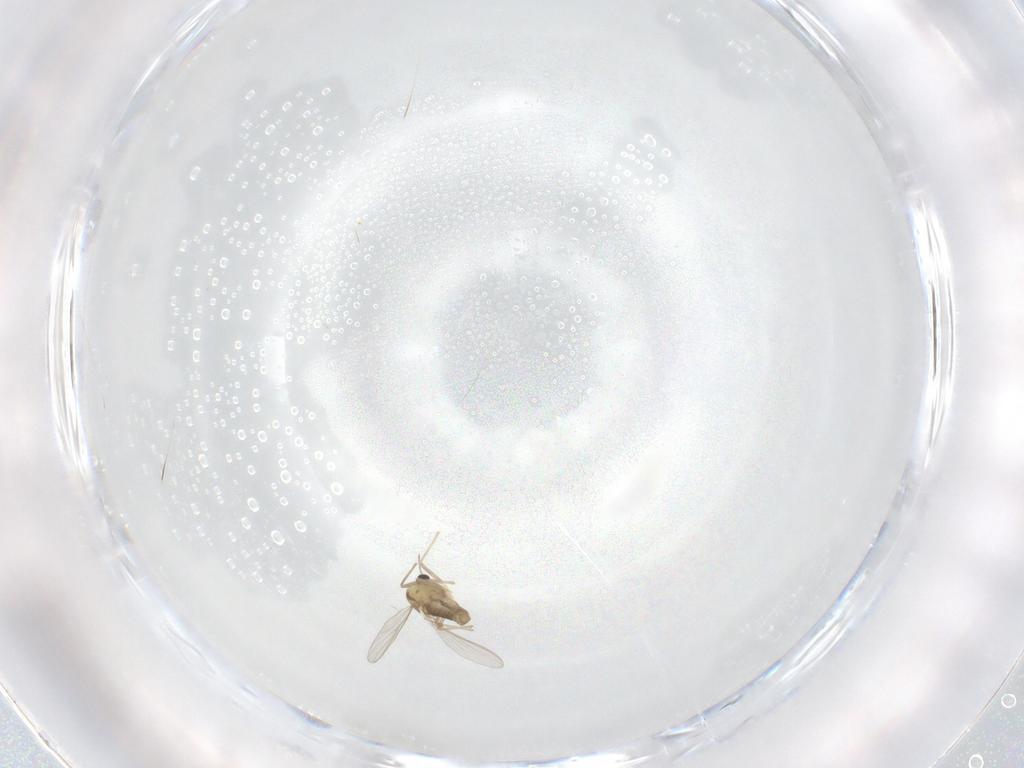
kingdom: Animalia
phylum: Arthropoda
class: Insecta
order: Diptera
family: Chironomidae
